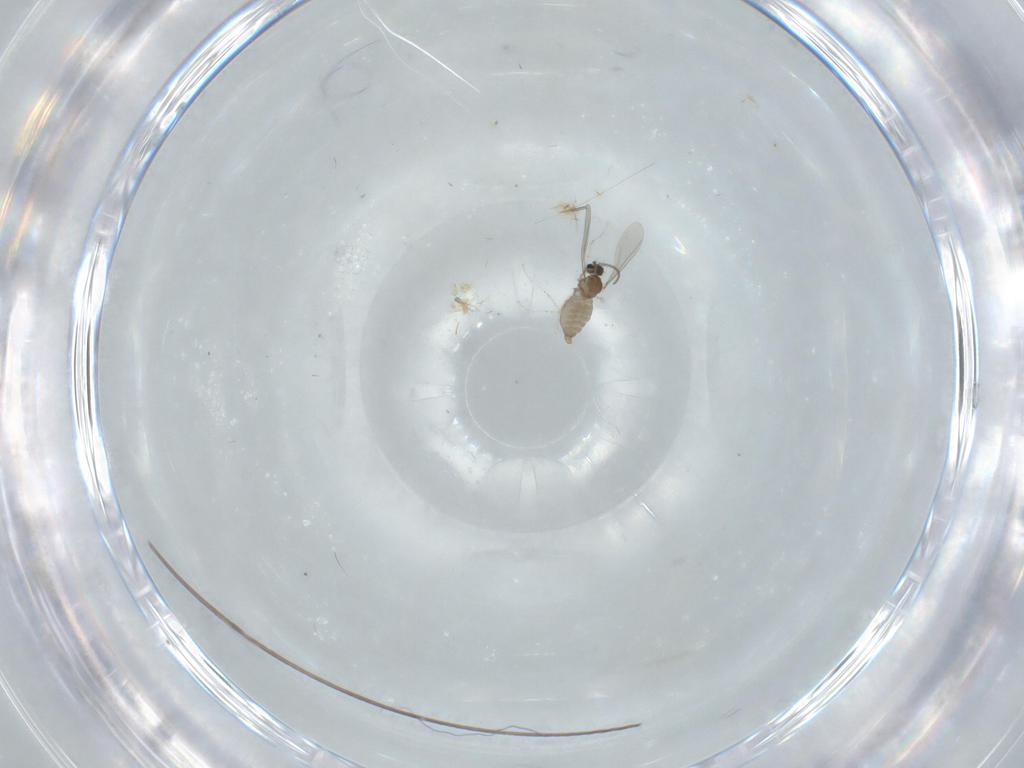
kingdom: Animalia
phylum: Arthropoda
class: Insecta
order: Diptera
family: Cecidomyiidae
